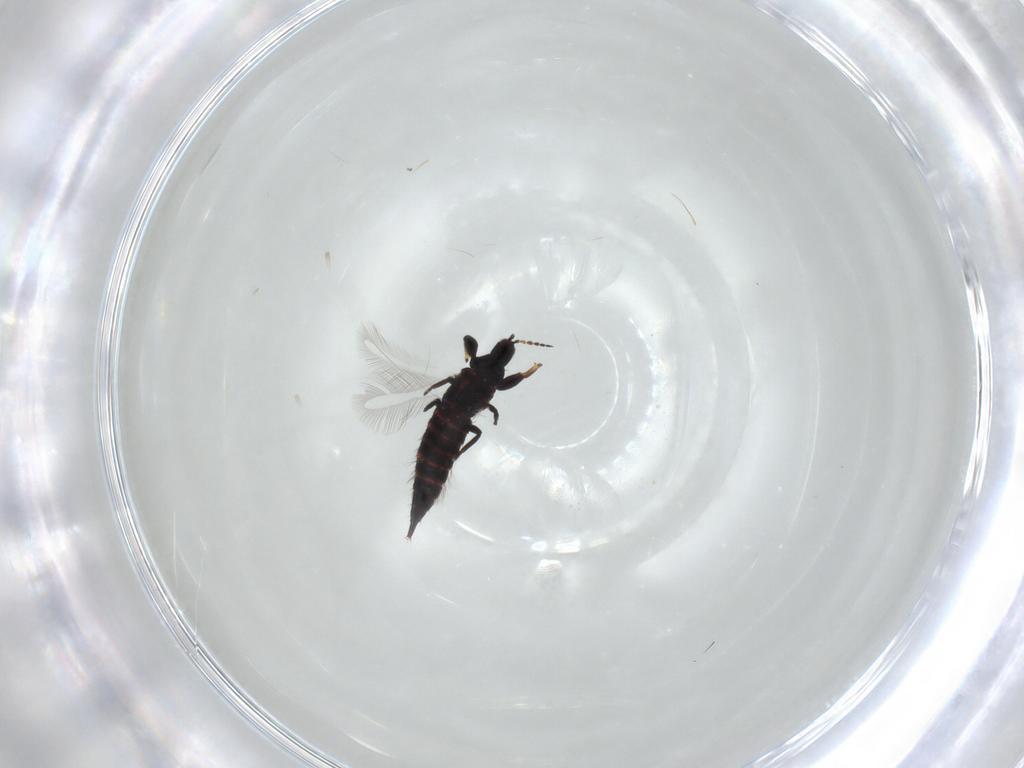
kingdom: Animalia
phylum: Arthropoda
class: Insecta
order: Thysanoptera
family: Phlaeothripidae
